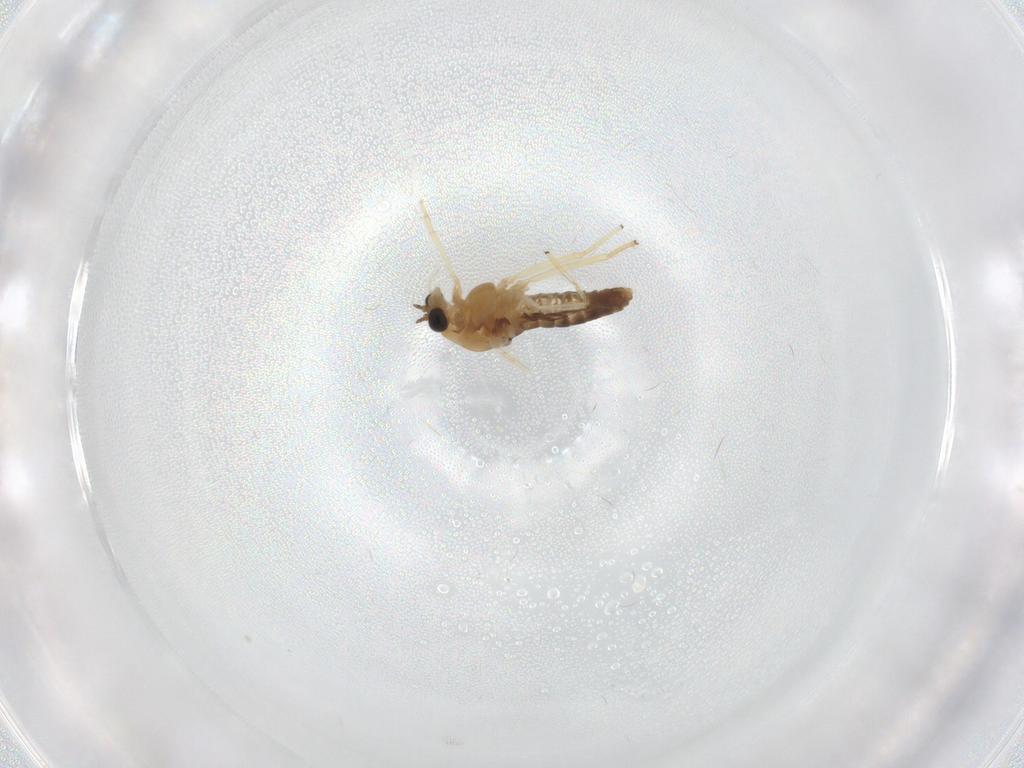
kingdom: Animalia
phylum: Arthropoda
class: Insecta
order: Diptera
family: Chironomidae
